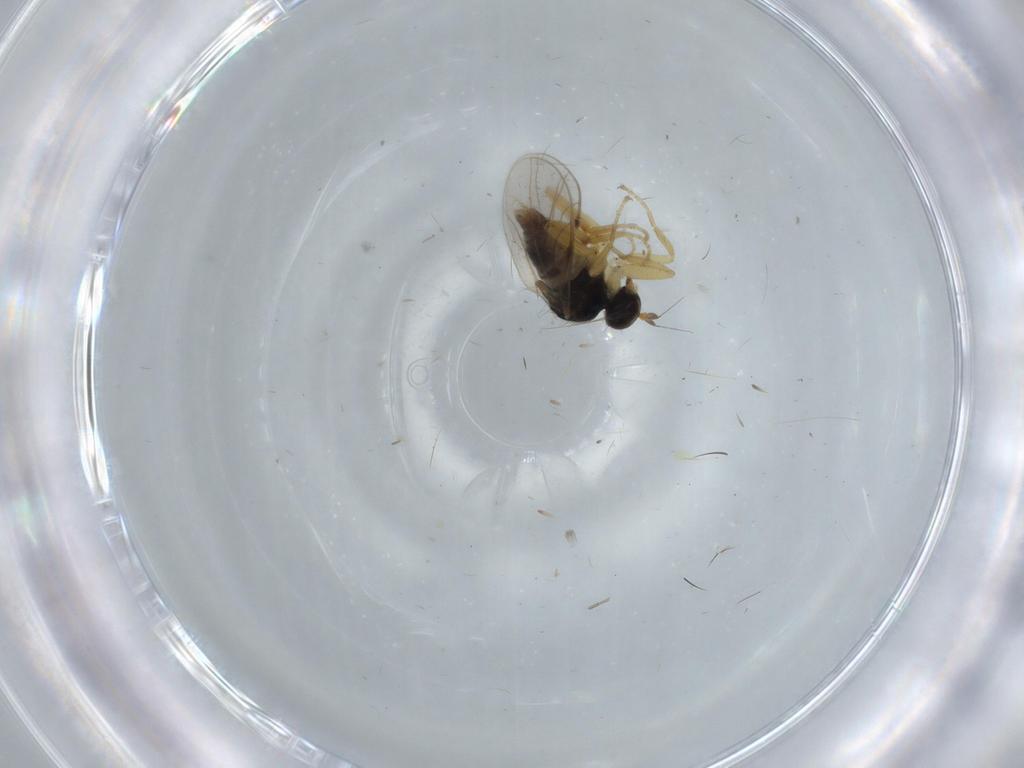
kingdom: Animalia
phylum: Arthropoda
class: Insecta
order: Diptera
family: Hybotidae
